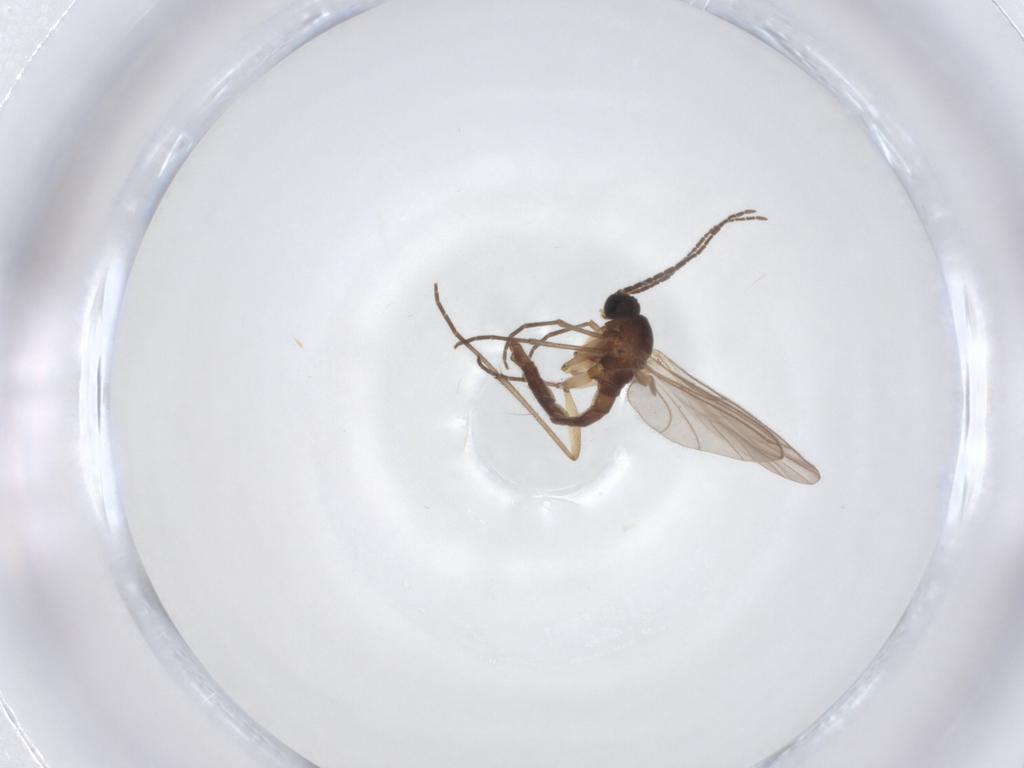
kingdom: Animalia
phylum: Arthropoda
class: Insecta
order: Diptera
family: Sciaridae
